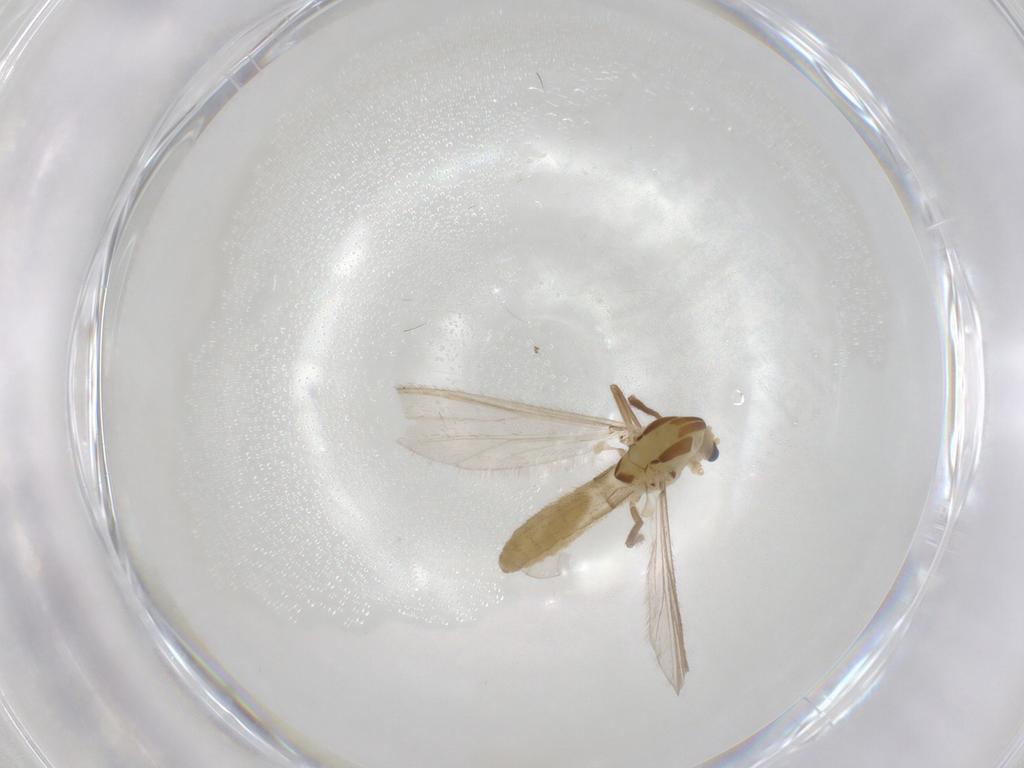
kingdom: Animalia
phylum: Arthropoda
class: Insecta
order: Diptera
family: Chironomidae
